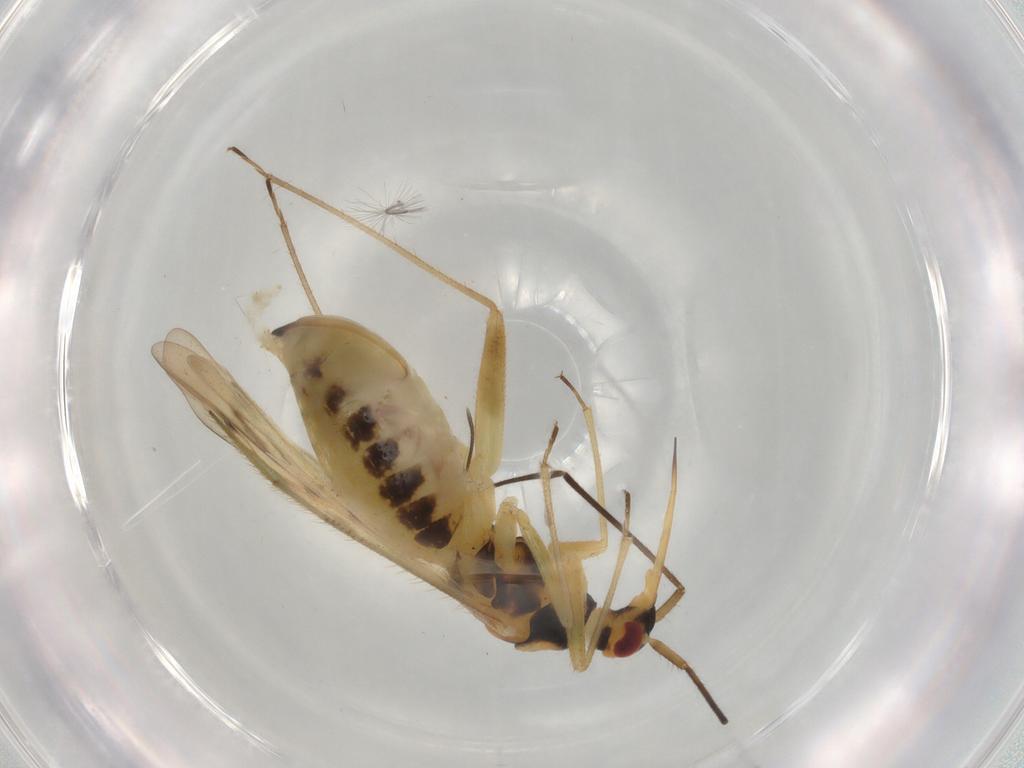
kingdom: Animalia
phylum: Arthropoda
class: Insecta
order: Hemiptera
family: Miridae
